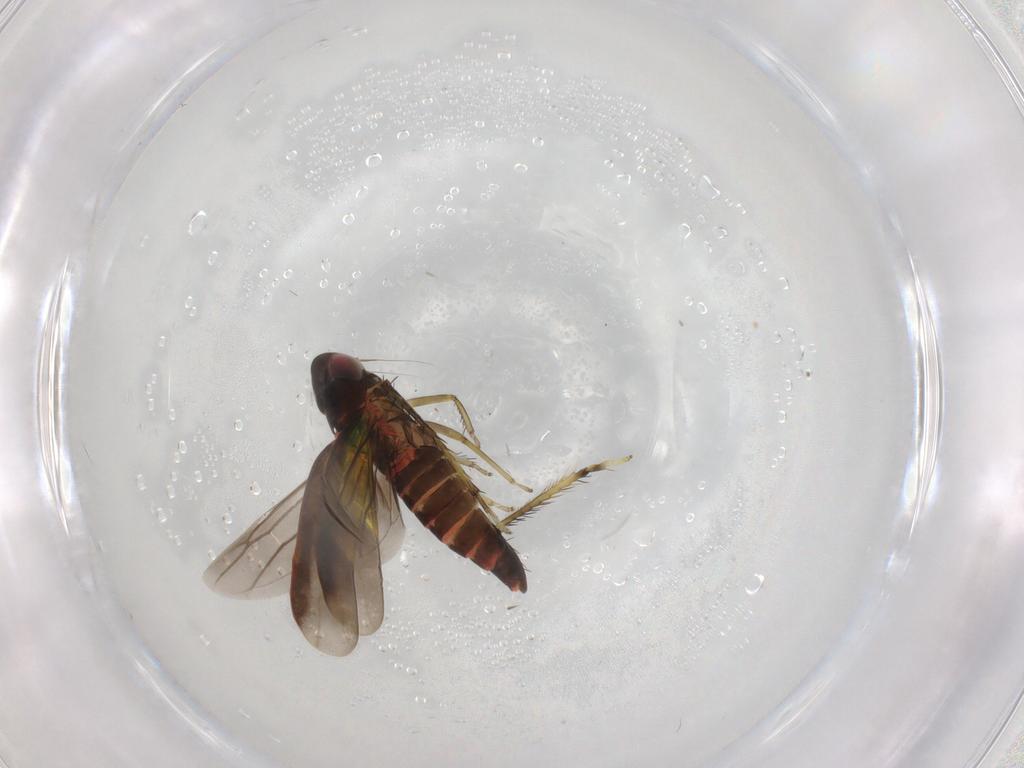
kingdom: Animalia
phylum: Arthropoda
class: Insecta
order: Hemiptera
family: Cicadellidae
